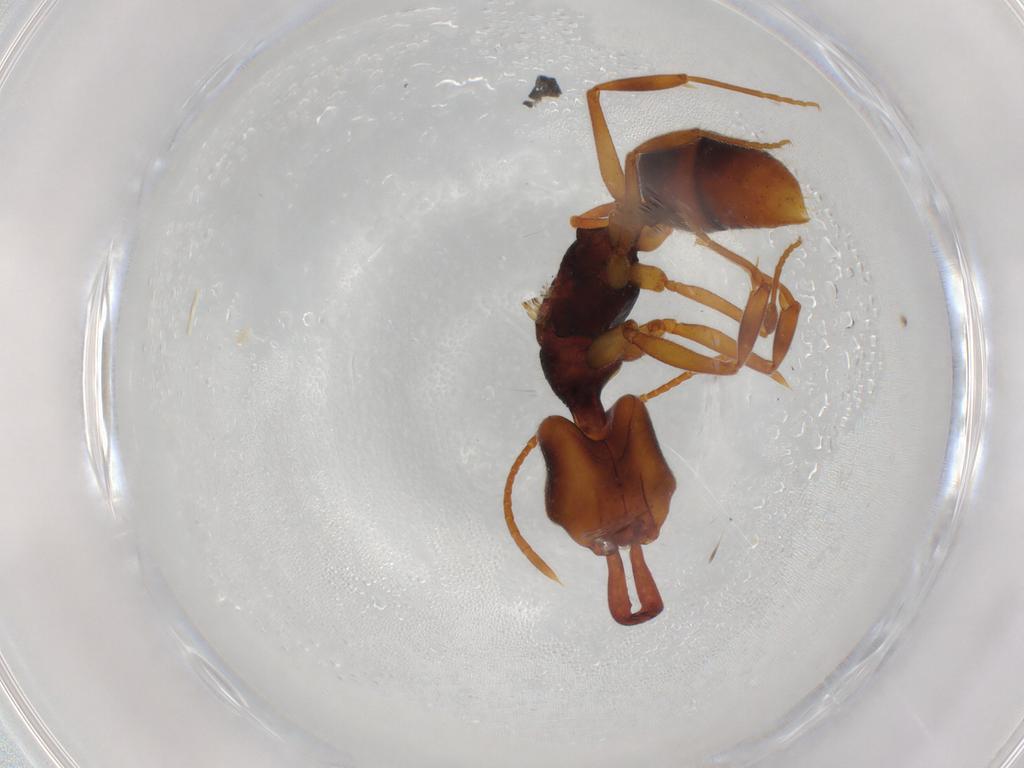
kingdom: Animalia
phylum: Arthropoda
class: Insecta
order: Hymenoptera
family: Formicidae
